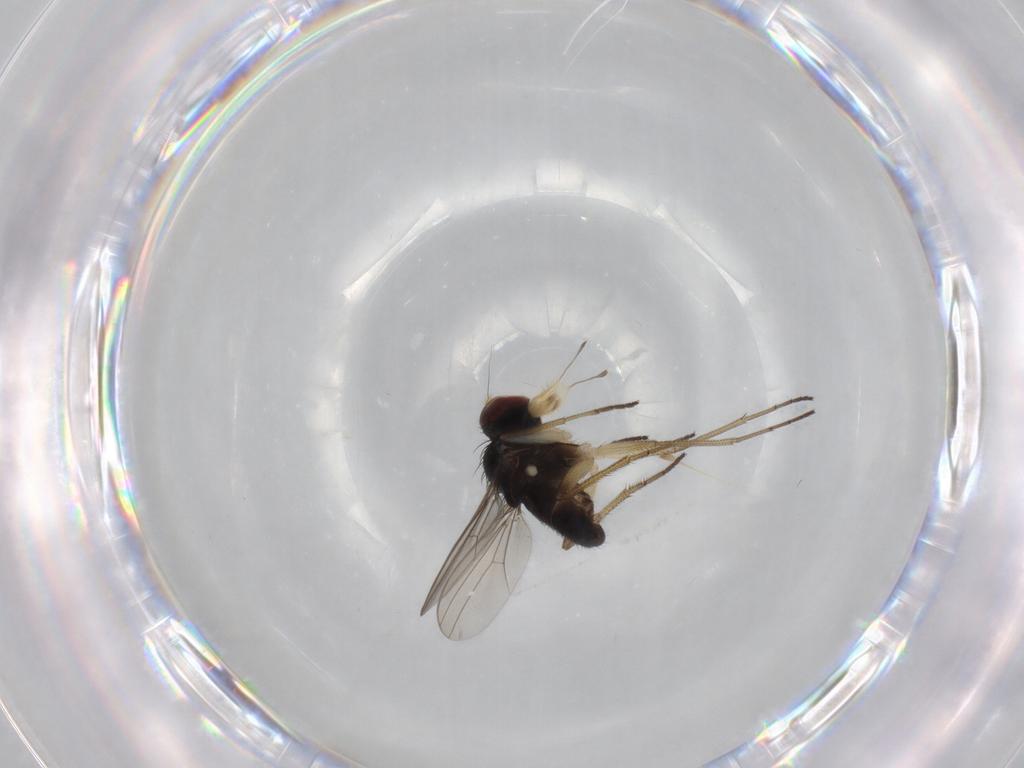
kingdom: Animalia
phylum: Arthropoda
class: Insecta
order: Diptera
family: Dolichopodidae
